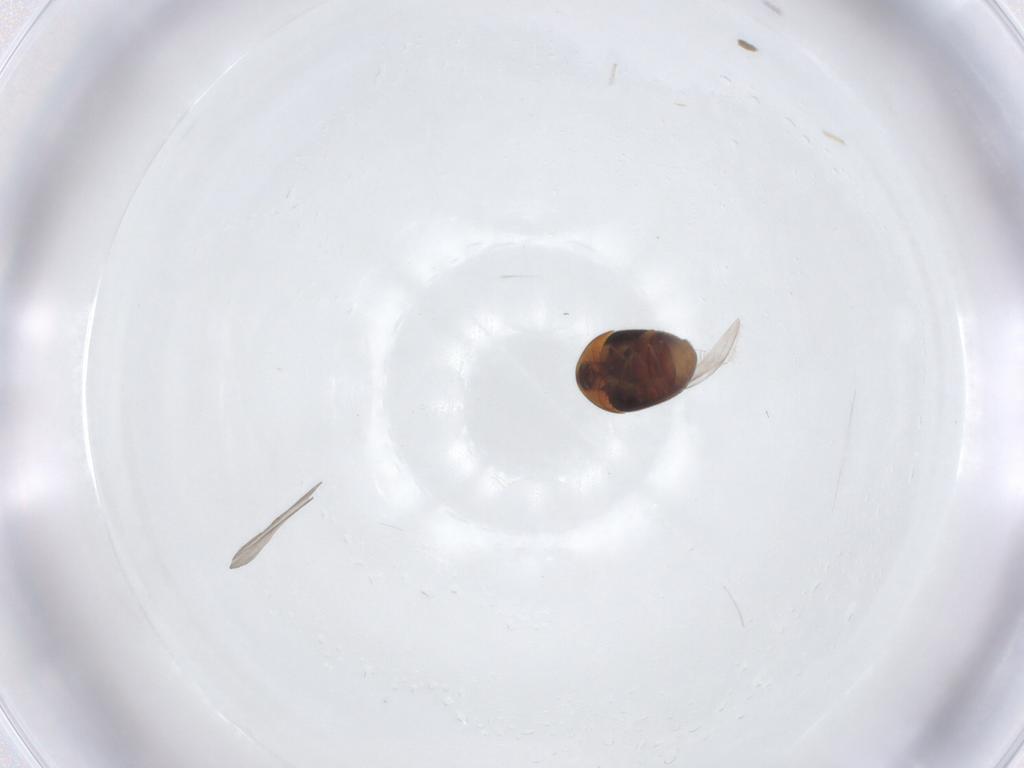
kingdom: Animalia
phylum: Arthropoda
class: Insecta
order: Coleoptera
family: Corylophidae
